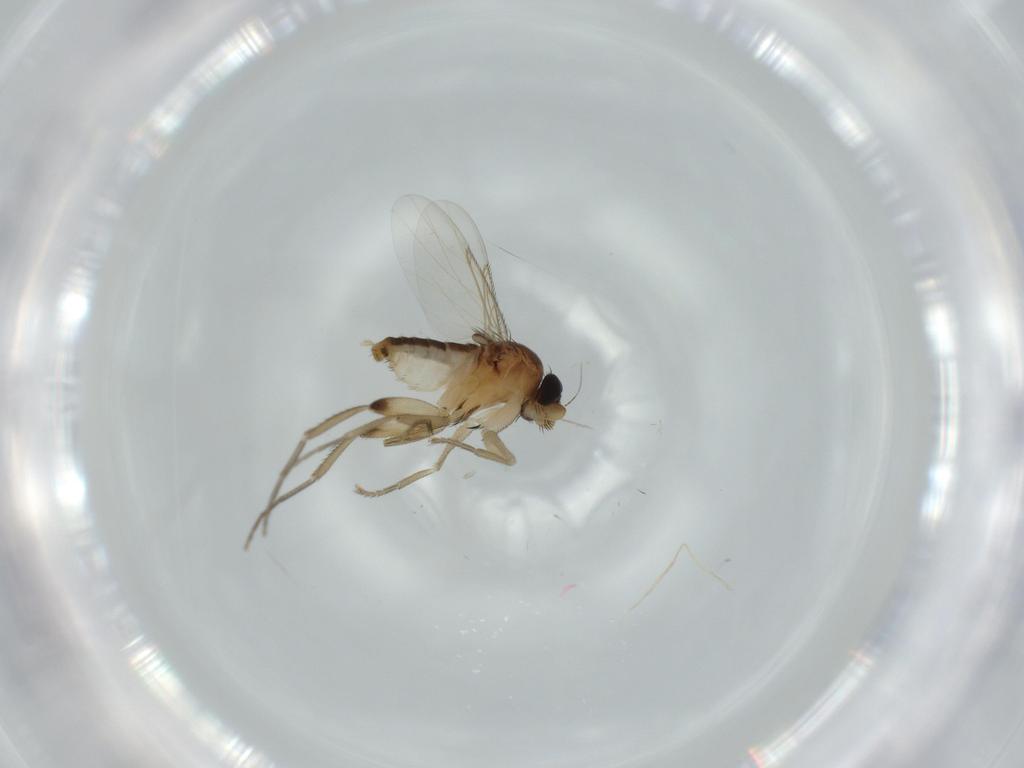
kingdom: Animalia
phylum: Arthropoda
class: Insecta
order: Diptera
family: Phoridae
